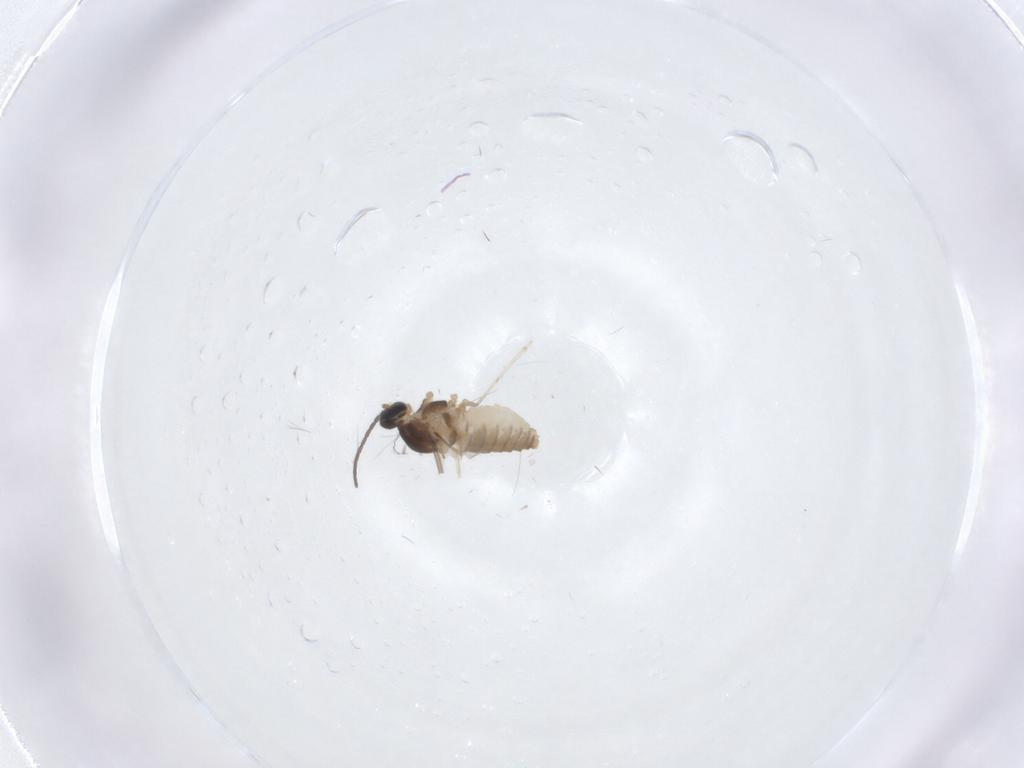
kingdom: Animalia
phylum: Arthropoda
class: Insecta
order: Diptera
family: Cecidomyiidae
